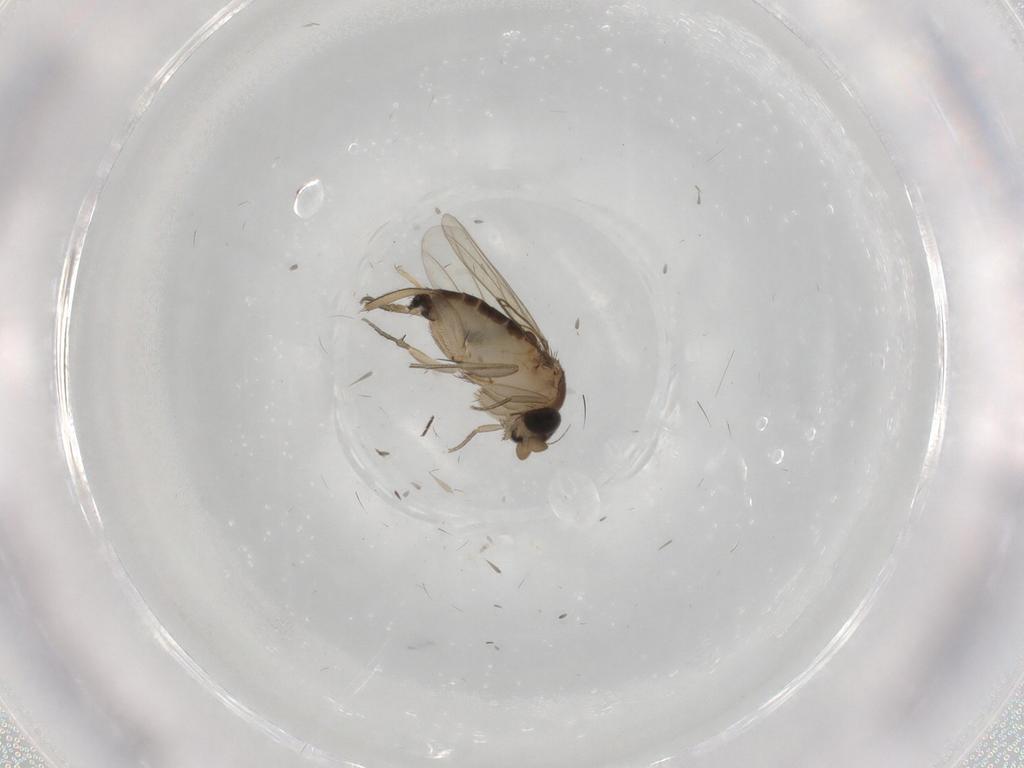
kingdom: Animalia
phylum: Arthropoda
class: Insecta
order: Diptera
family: Phoridae
